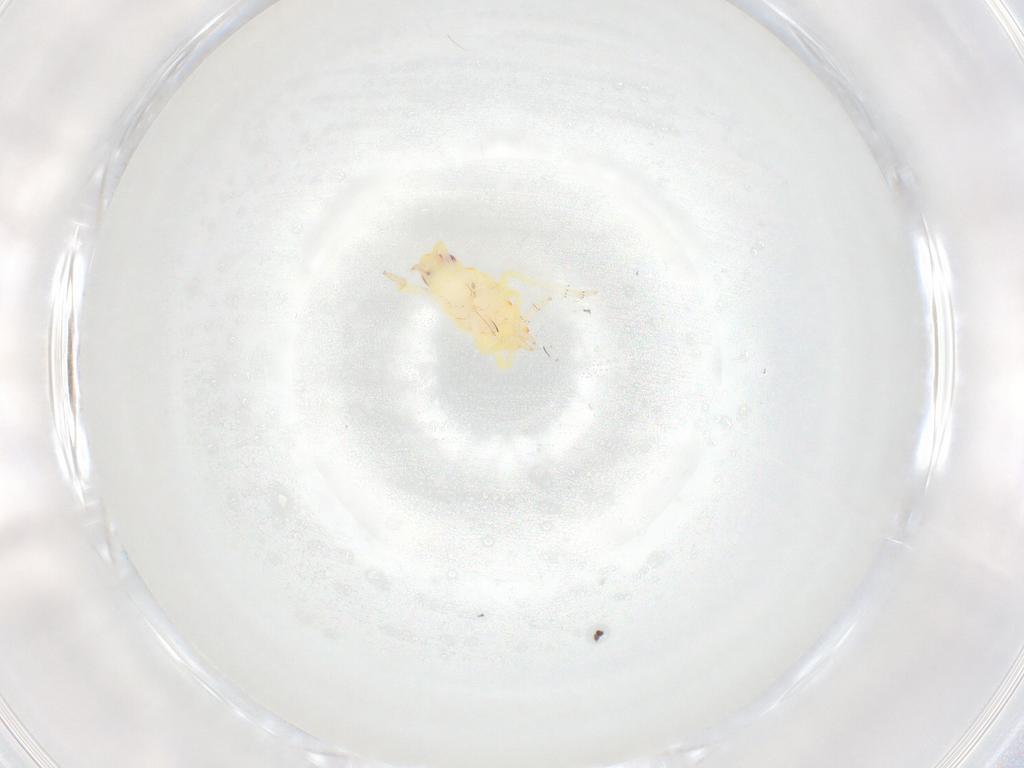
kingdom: Animalia
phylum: Arthropoda
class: Insecta
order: Hemiptera
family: Tropiduchidae
